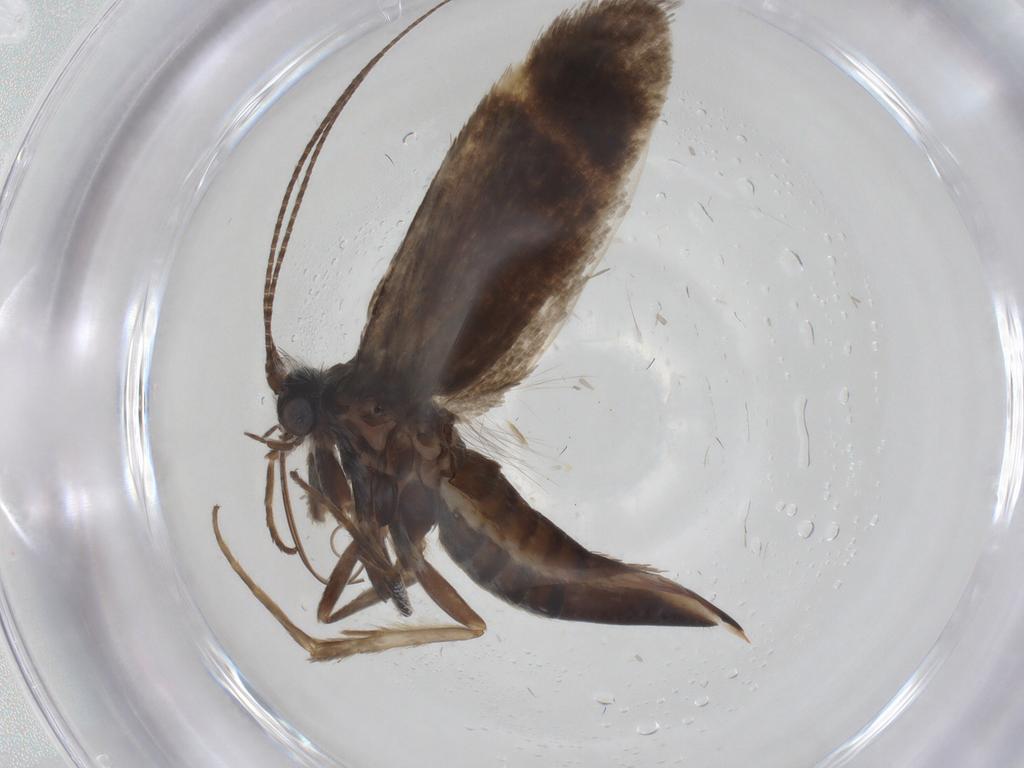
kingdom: Animalia
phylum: Arthropoda
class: Insecta
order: Lepidoptera
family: Adelidae
